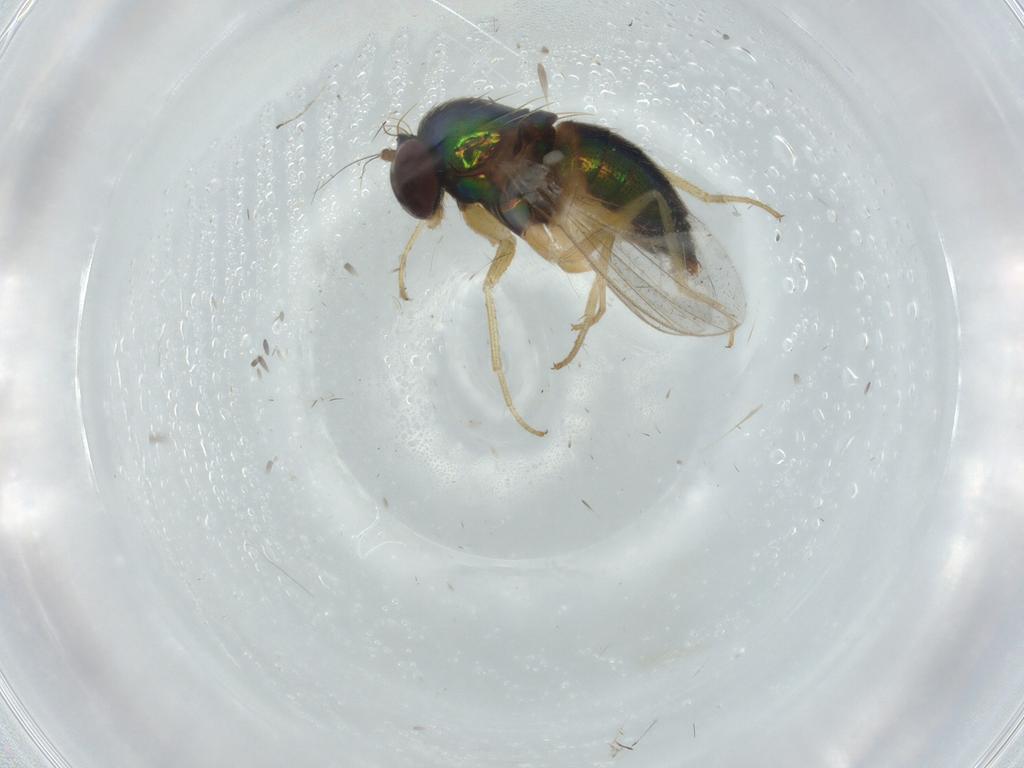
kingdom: Animalia
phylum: Arthropoda
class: Insecta
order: Diptera
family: Dolichopodidae
